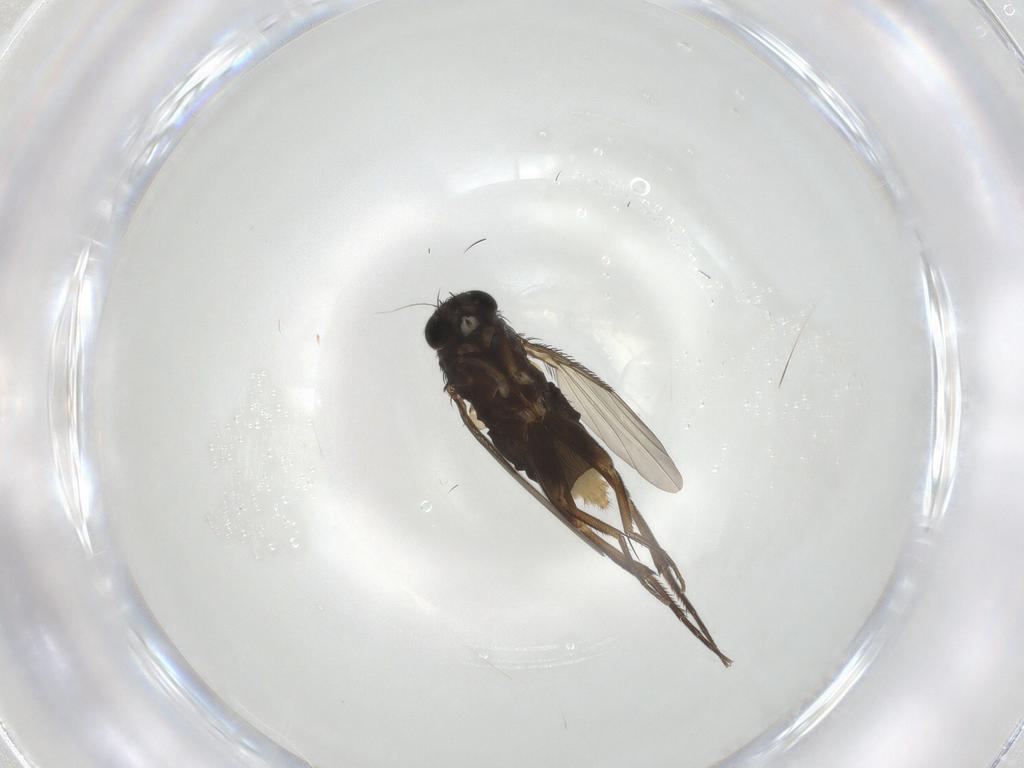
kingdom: Animalia
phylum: Arthropoda
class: Insecta
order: Diptera
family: Phoridae
